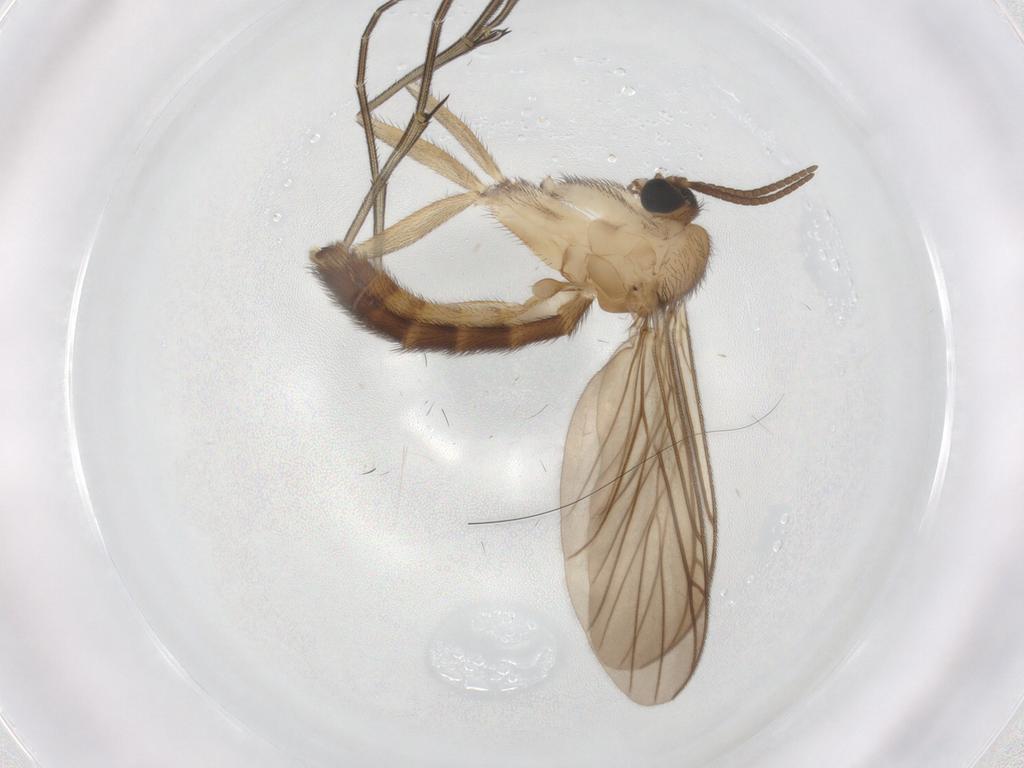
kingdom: Animalia
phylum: Arthropoda
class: Insecta
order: Diptera
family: Keroplatidae
